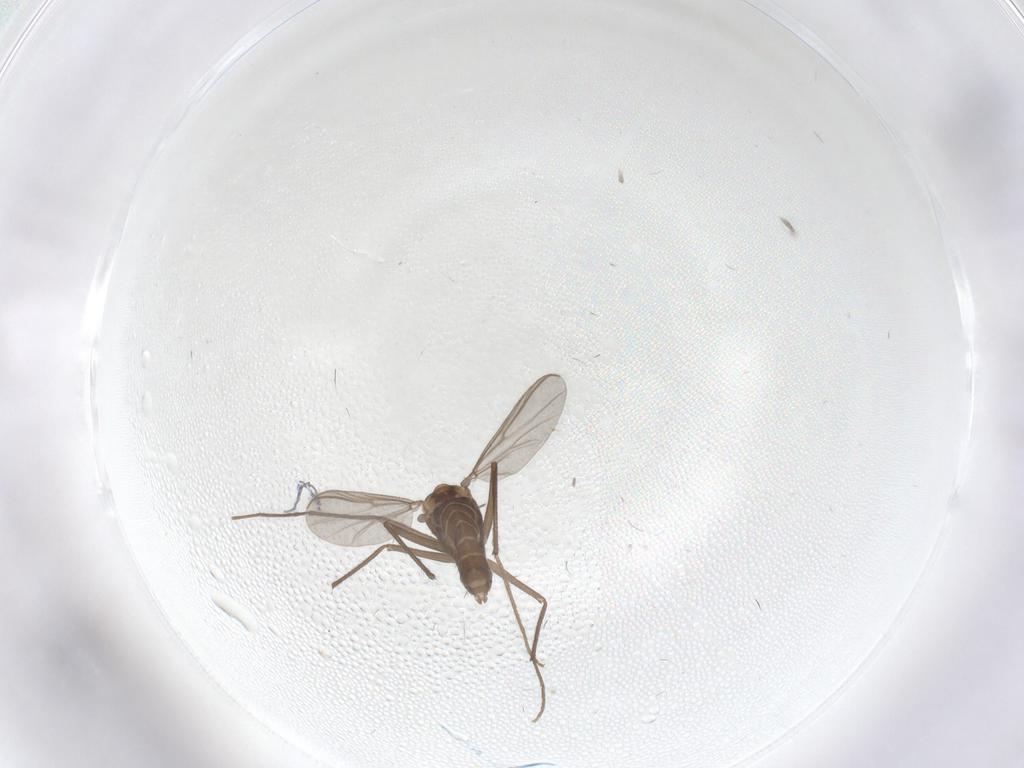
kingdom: Animalia
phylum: Arthropoda
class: Insecta
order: Diptera
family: Chironomidae
